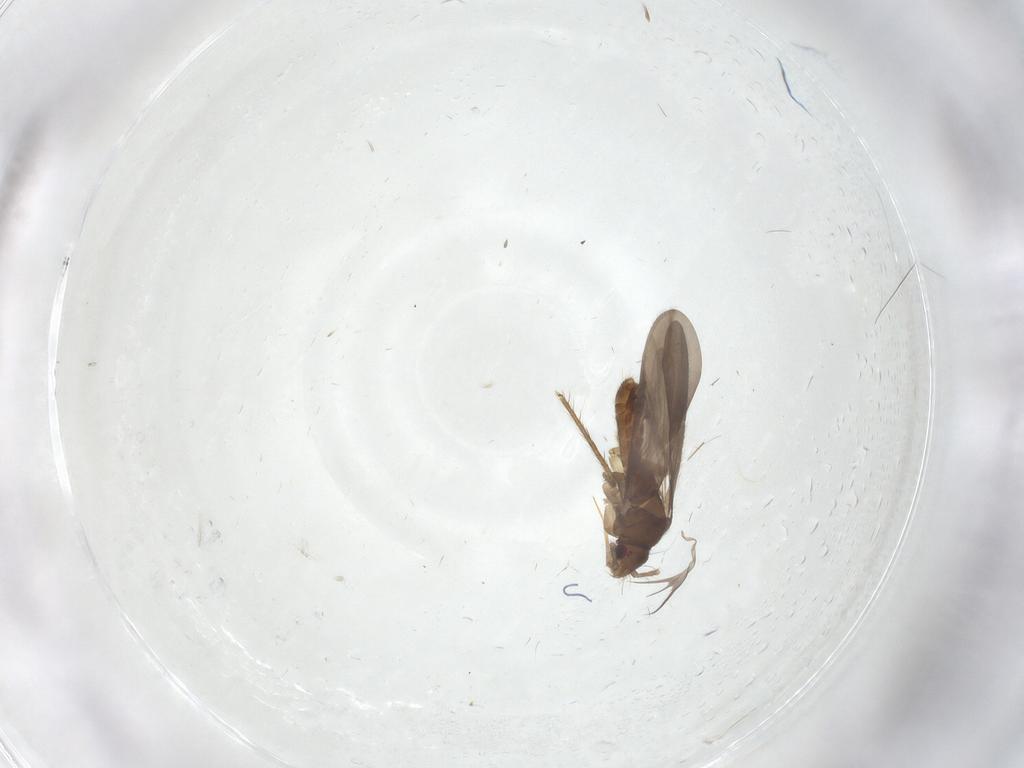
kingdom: Animalia
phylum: Arthropoda
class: Insecta
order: Hemiptera
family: Ceratocombidae
